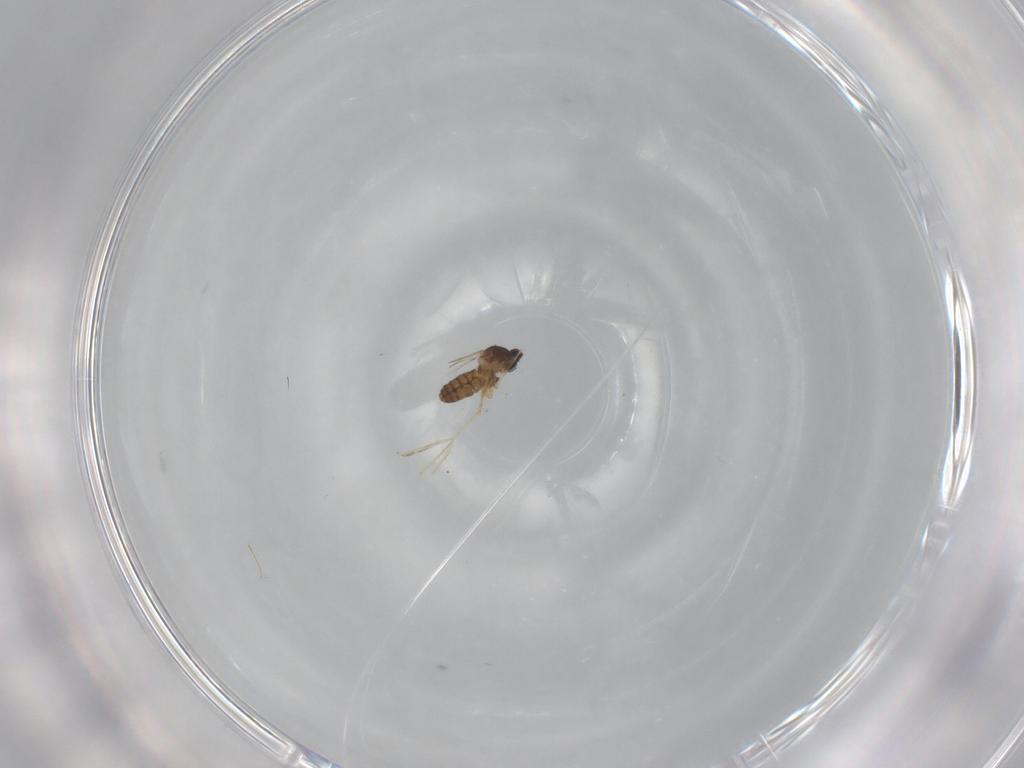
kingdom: Animalia
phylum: Arthropoda
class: Insecta
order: Diptera
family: Cecidomyiidae
